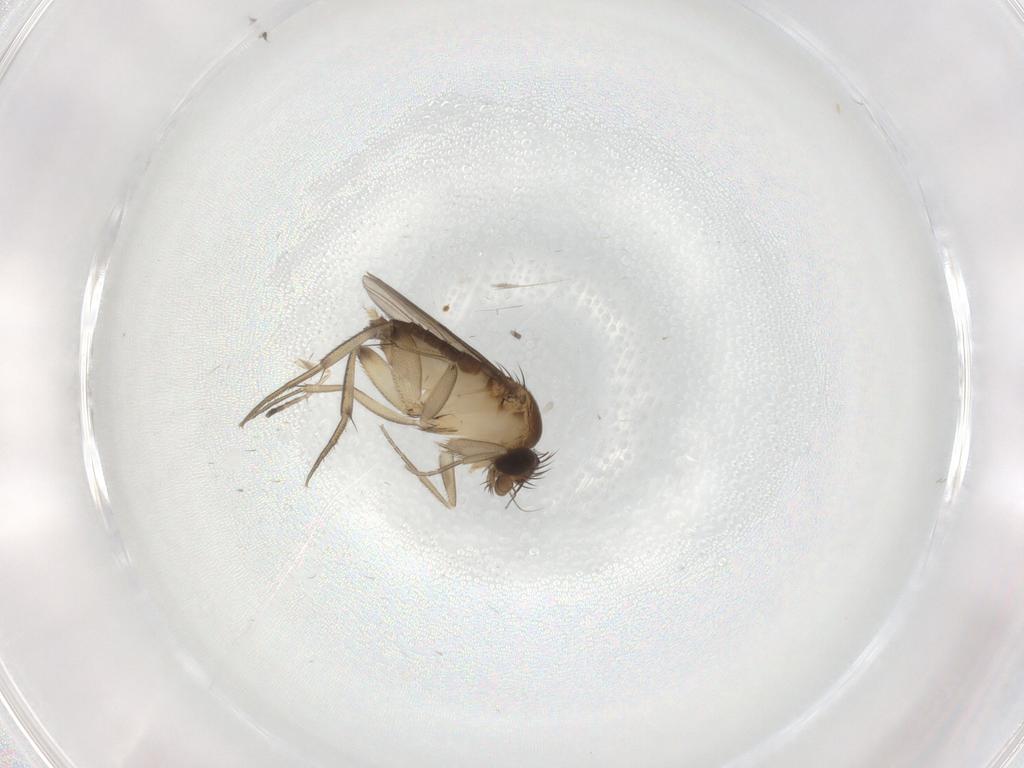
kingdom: Animalia
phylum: Arthropoda
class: Insecta
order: Diptera
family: Phoridae
